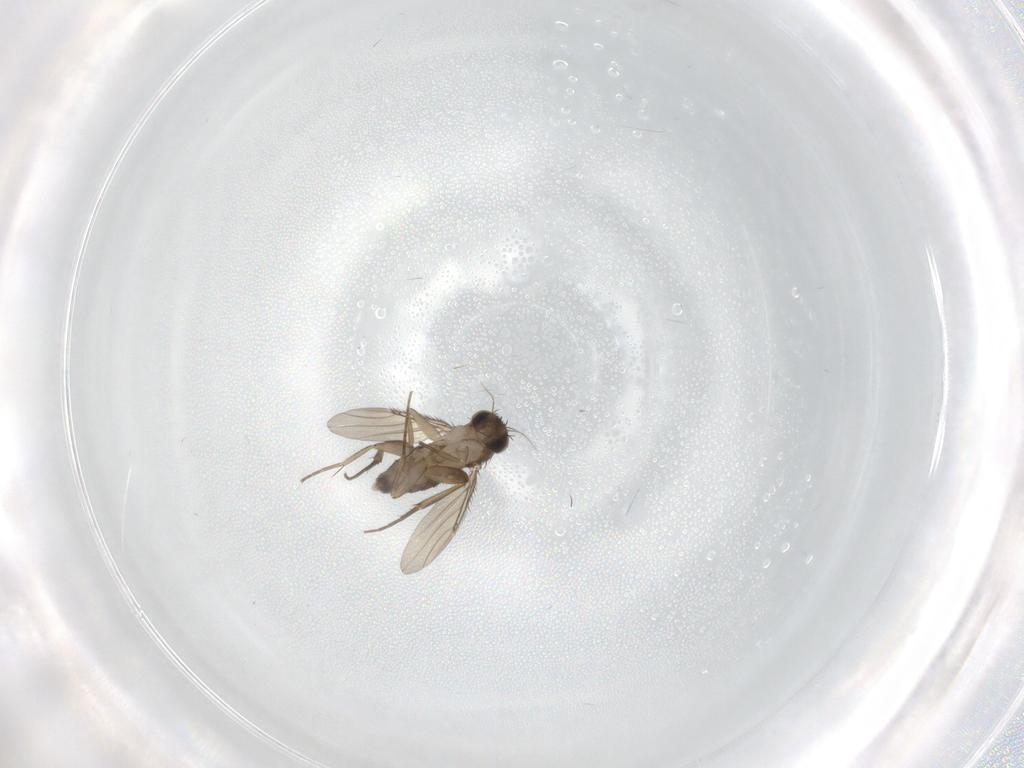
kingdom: Animalia
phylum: Arthropoda
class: Insecta
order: Diptera
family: Phoridae
